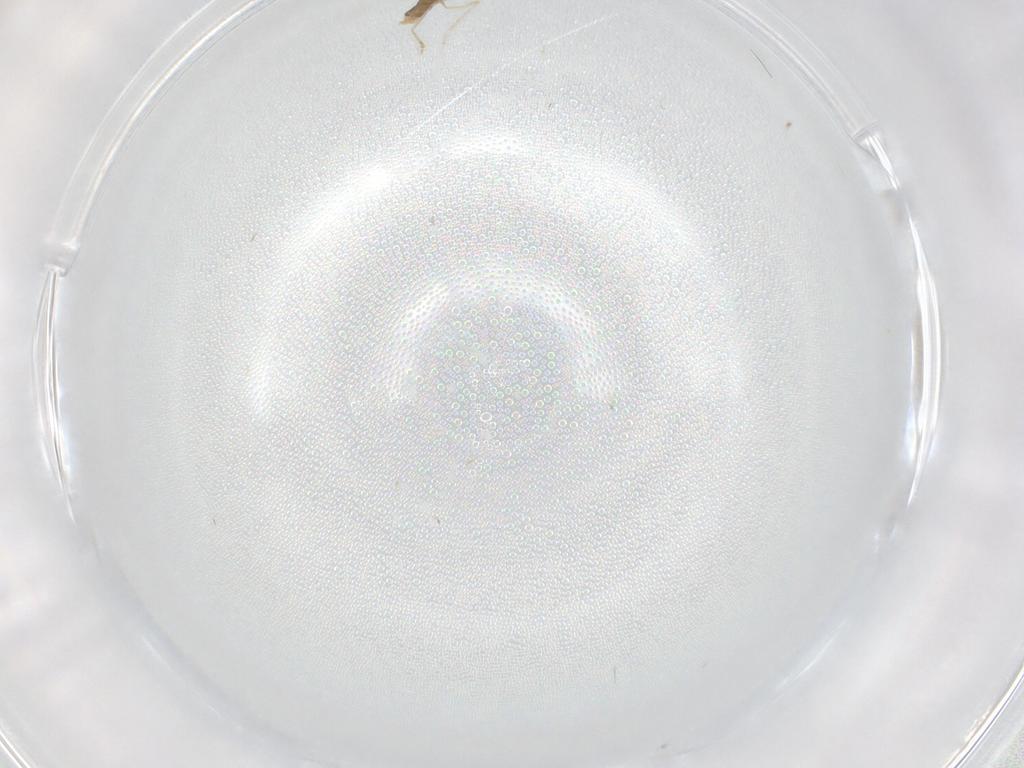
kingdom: Animalia
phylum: Arthropoda
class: Insecta
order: Diptera
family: Cecidomyiidae
